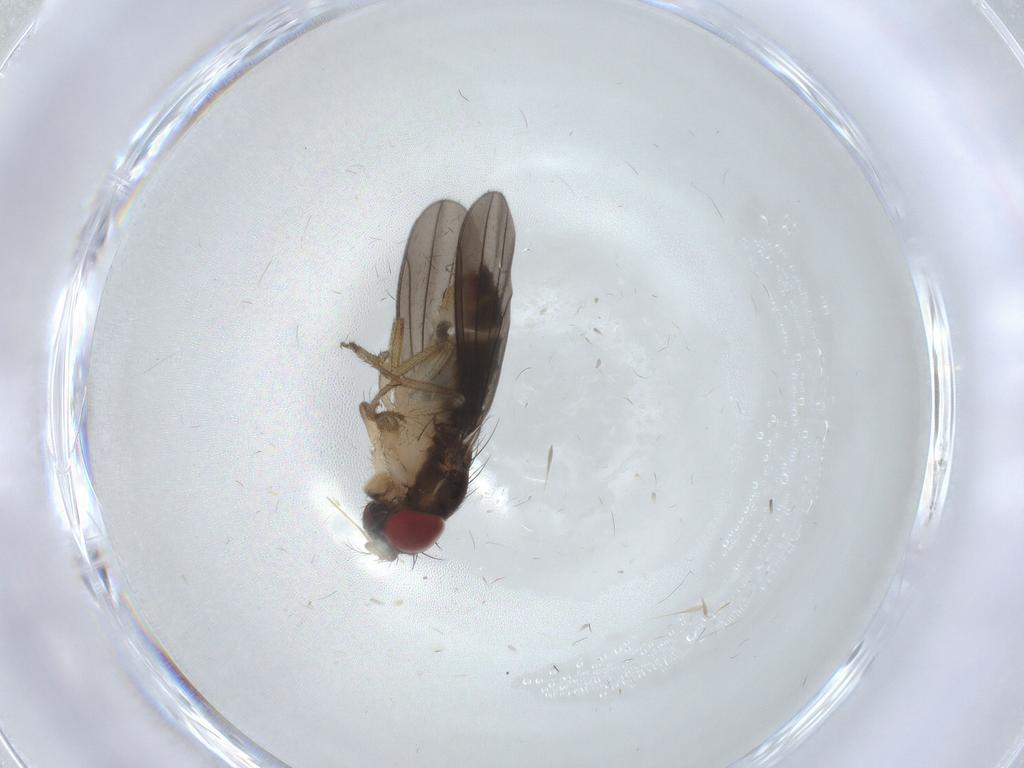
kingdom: Animalia
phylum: Arthropoda
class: Insecta
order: Diptera
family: Drosophilidae
